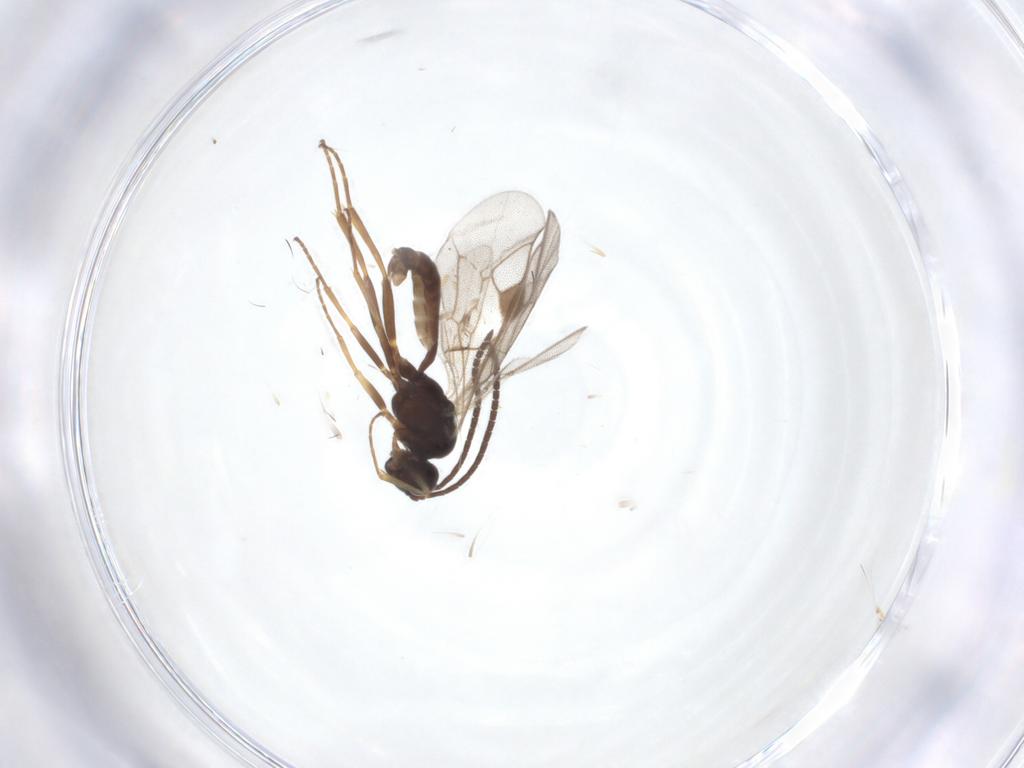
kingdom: Animalia
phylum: Arthropoda
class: Insecta
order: Hymenoptera
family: Ichneumonidae
